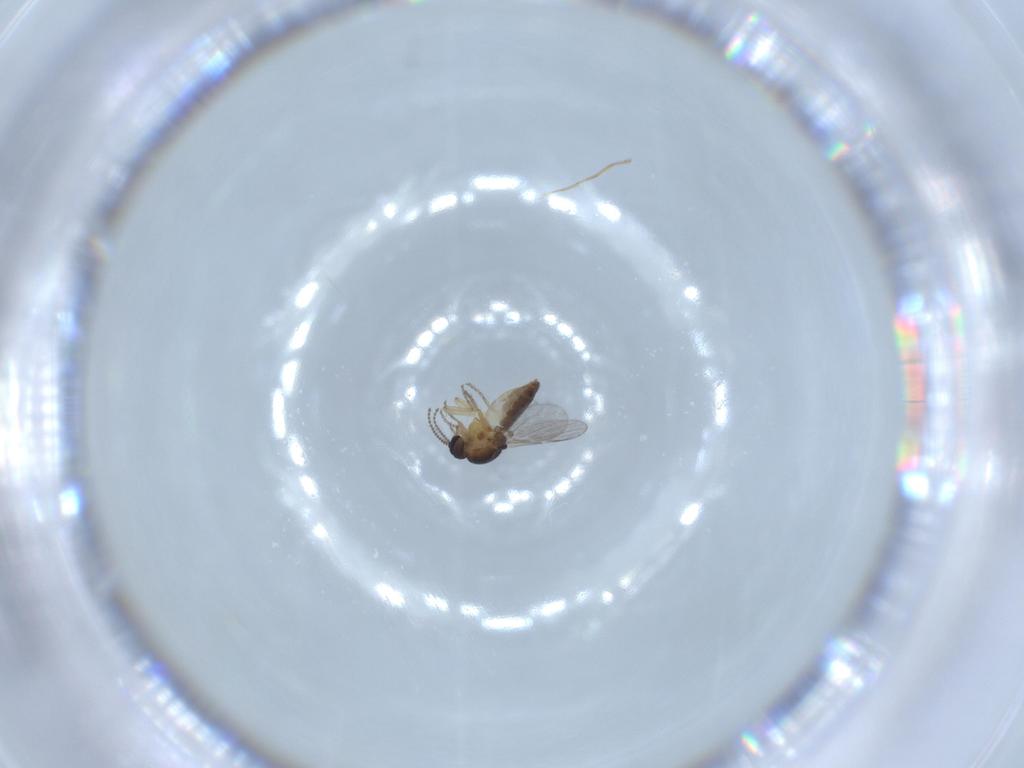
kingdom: Animalia
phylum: Arthropoda
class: Insecta
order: Diptera
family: Ceratopogonidae
